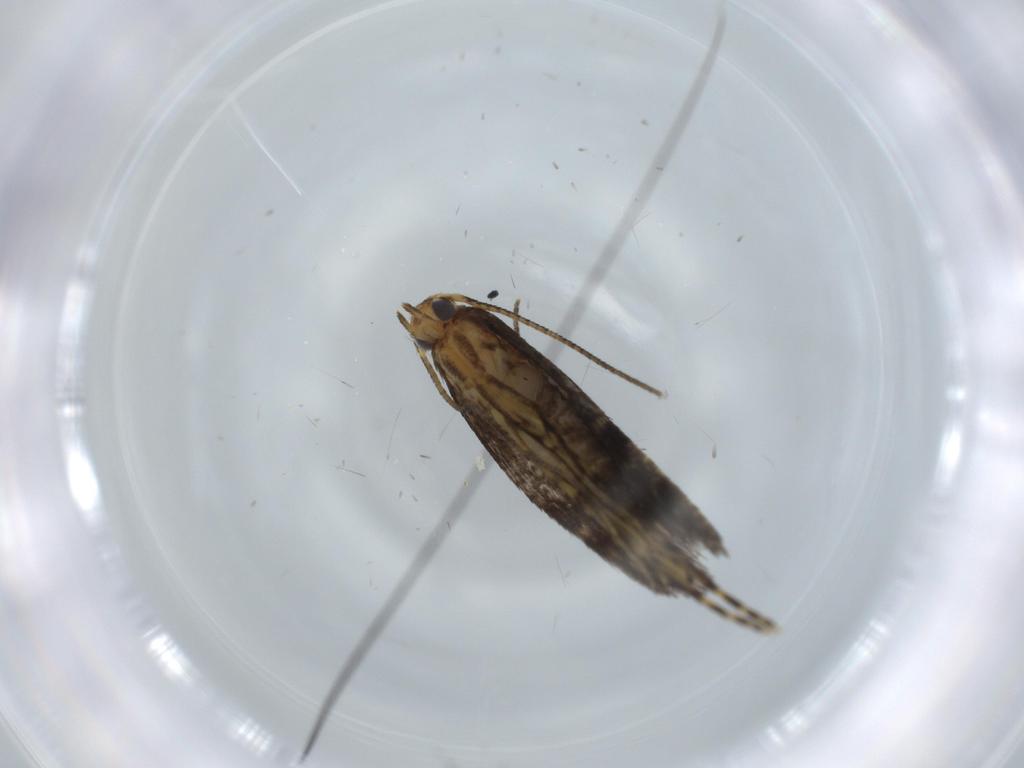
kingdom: Animalia
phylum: Arthropoda
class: Insecta
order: Lepidoptera
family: Argyresthiidae
